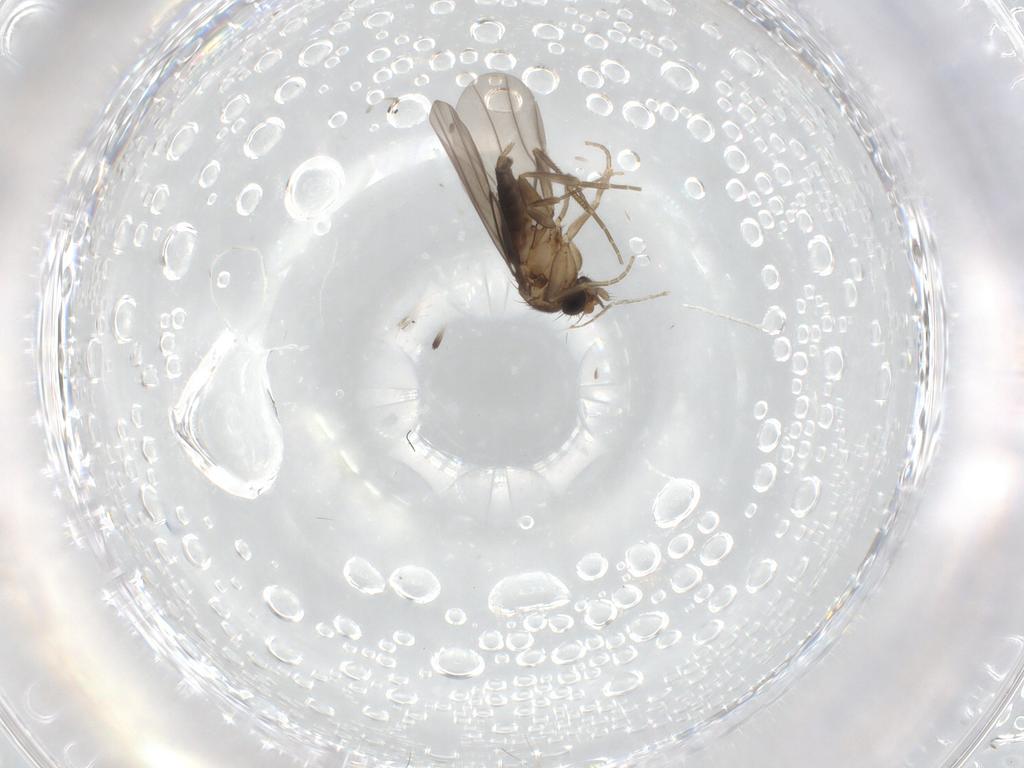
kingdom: Animalia
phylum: Arthropoda
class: Insecta
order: Diptera
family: Phoridae
